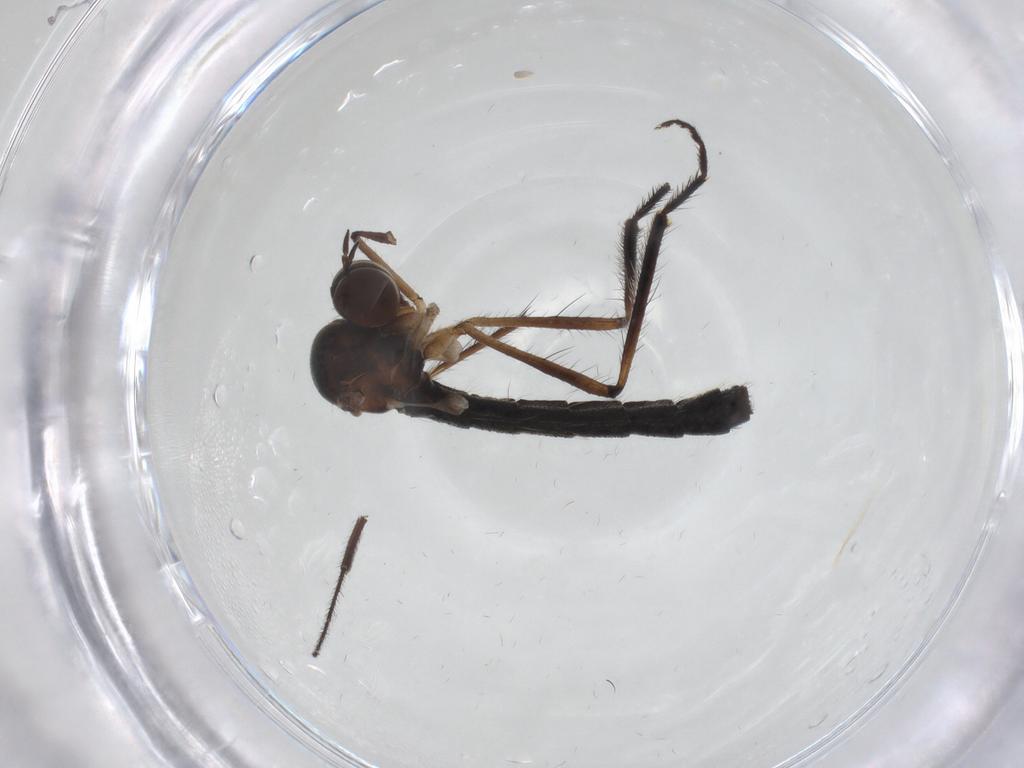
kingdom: Animalia
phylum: Arthropoda
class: Insecta
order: Diptera
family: Hybotidae
